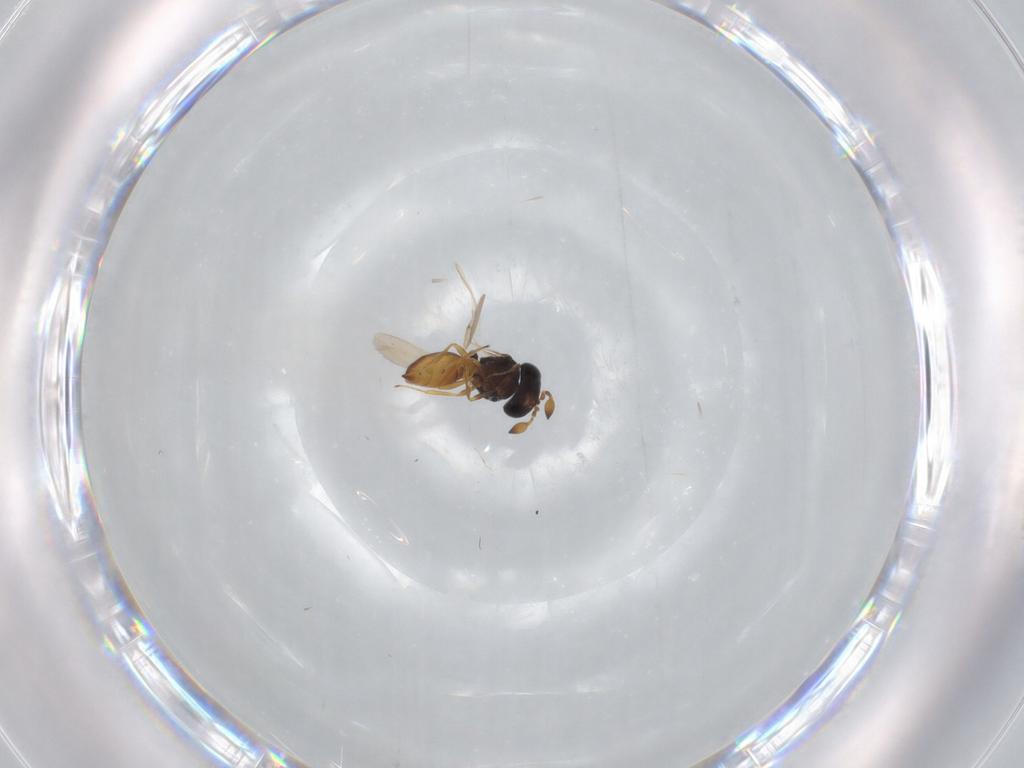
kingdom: Animalia
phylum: Arthropoda
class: Insecta
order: Hymenoptera
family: Scelionidae
